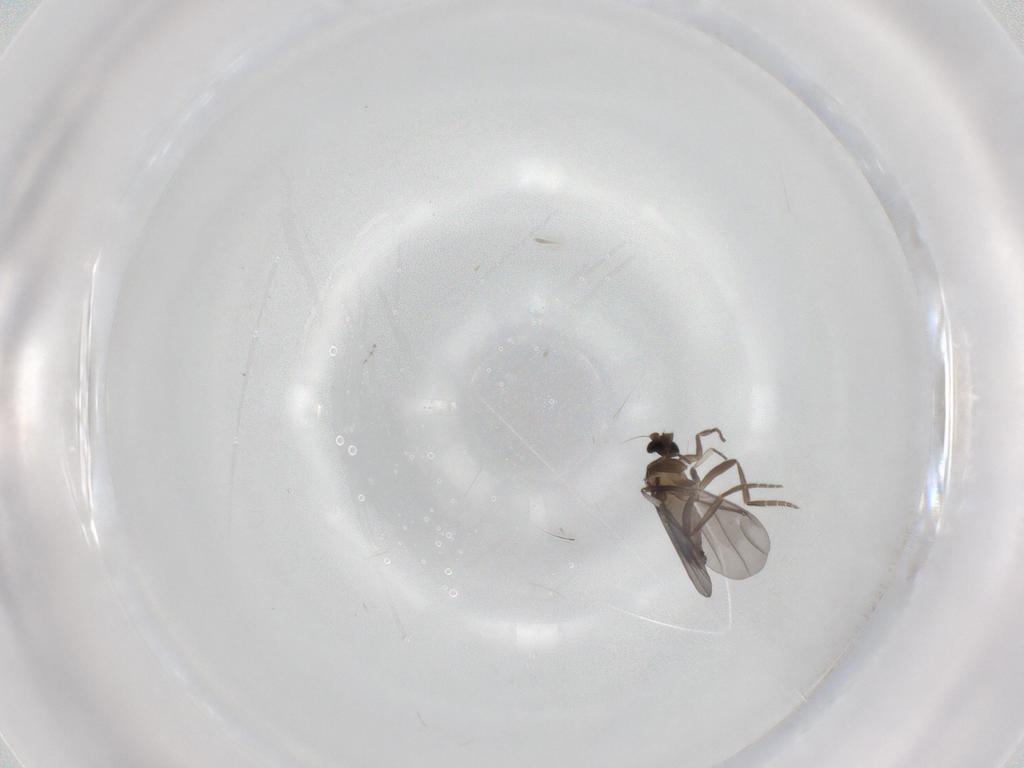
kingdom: Animalia
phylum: Arthropoda
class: Insecta
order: Diptera
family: Phoridae
